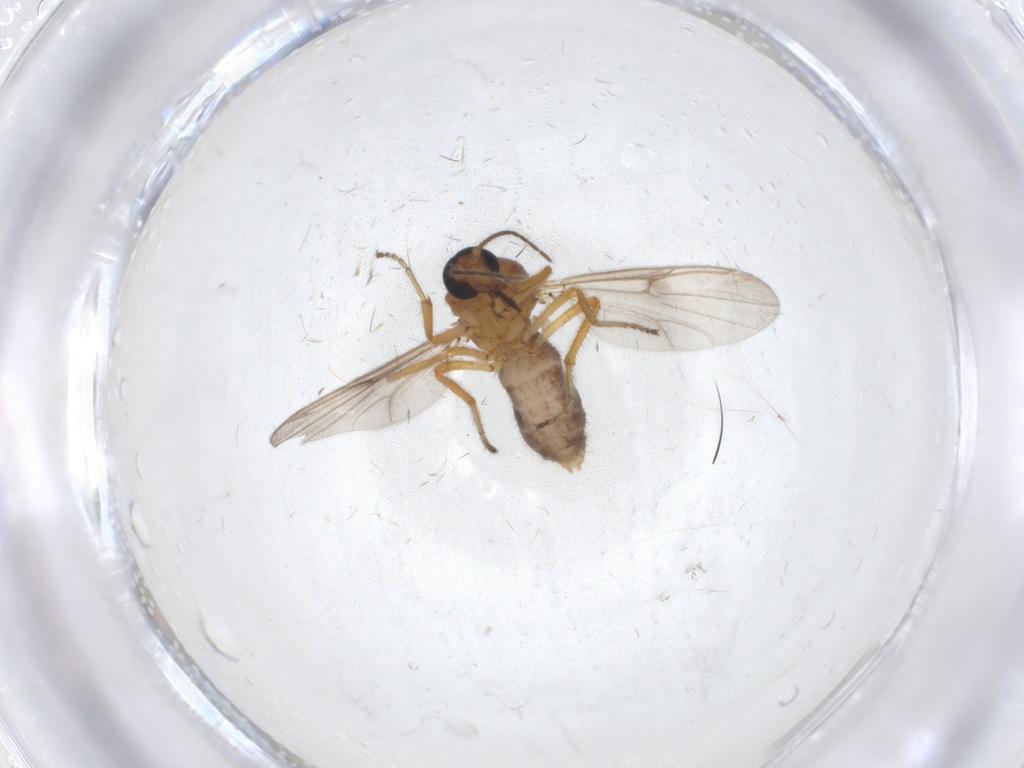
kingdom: Animalia
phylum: Arthropoda
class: Insecta
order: Diptera
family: Ceratopogonidae
